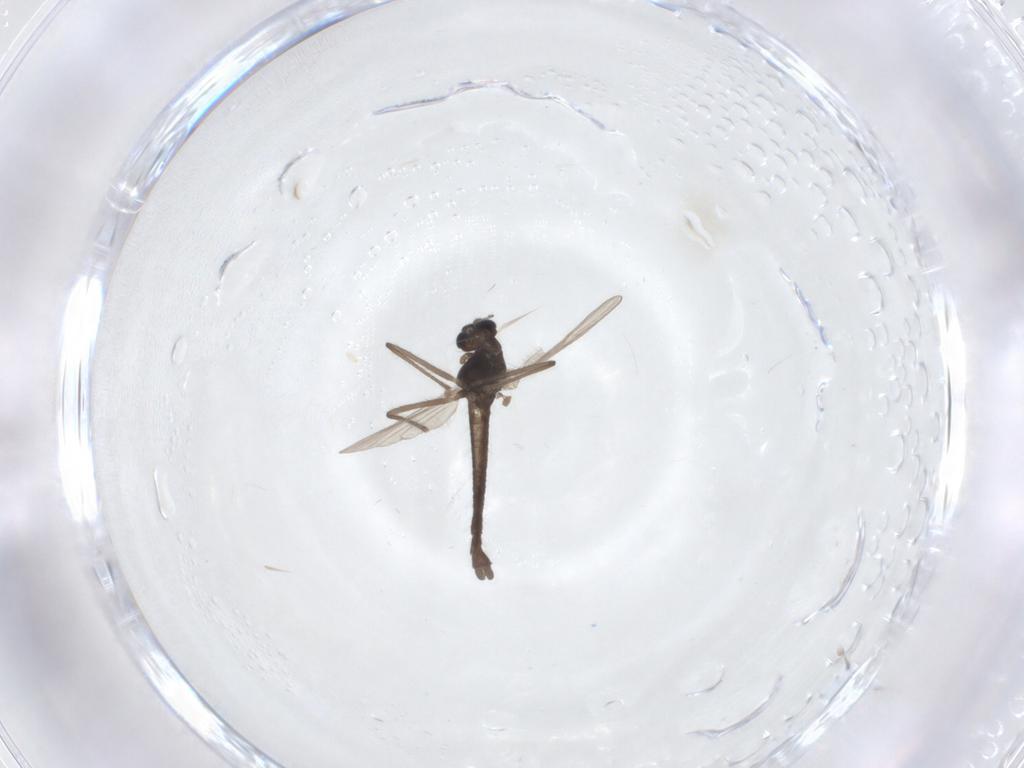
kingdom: Animalia
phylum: Arthropoda
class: Insecta
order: Diptera
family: Chironomidae
